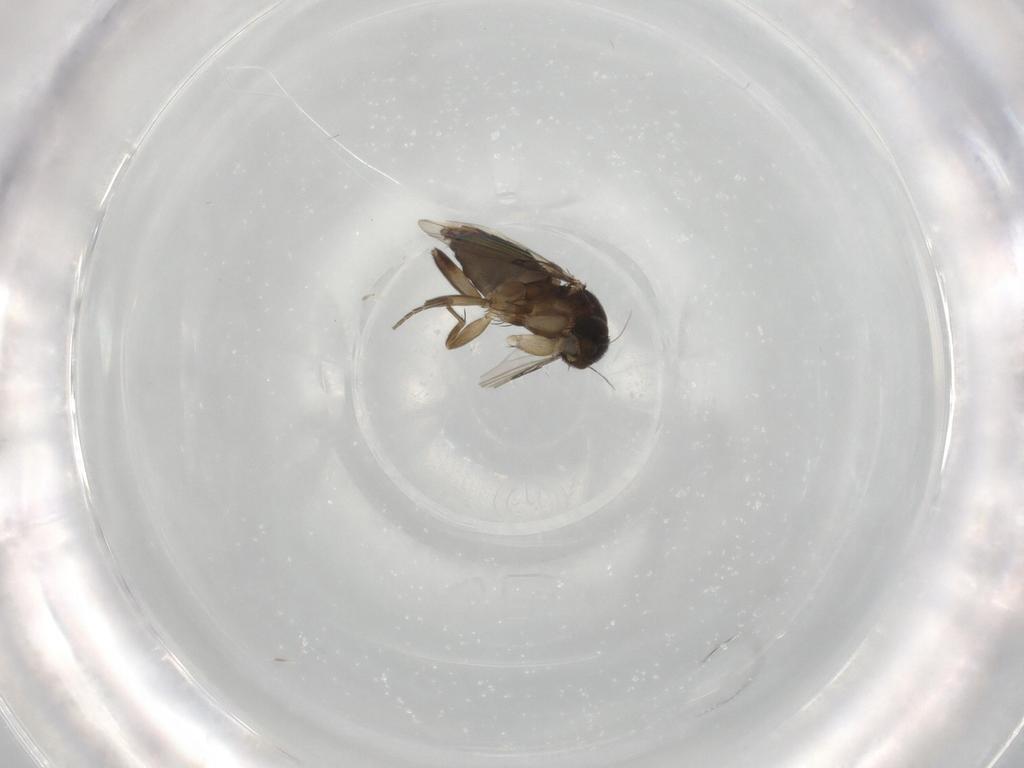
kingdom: Animalia
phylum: Arthropoda
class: Insecta
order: Diptera
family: Phoridae
